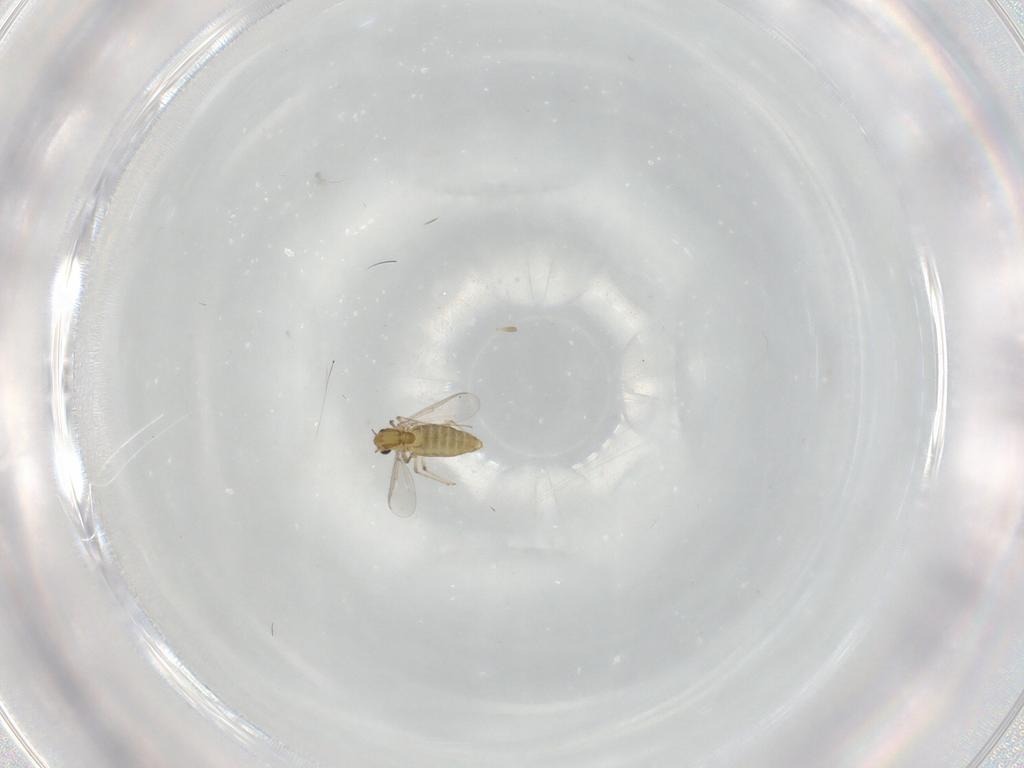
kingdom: Animalia
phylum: Arthropoda
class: Insecta
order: Diptera
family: Chironomidae
